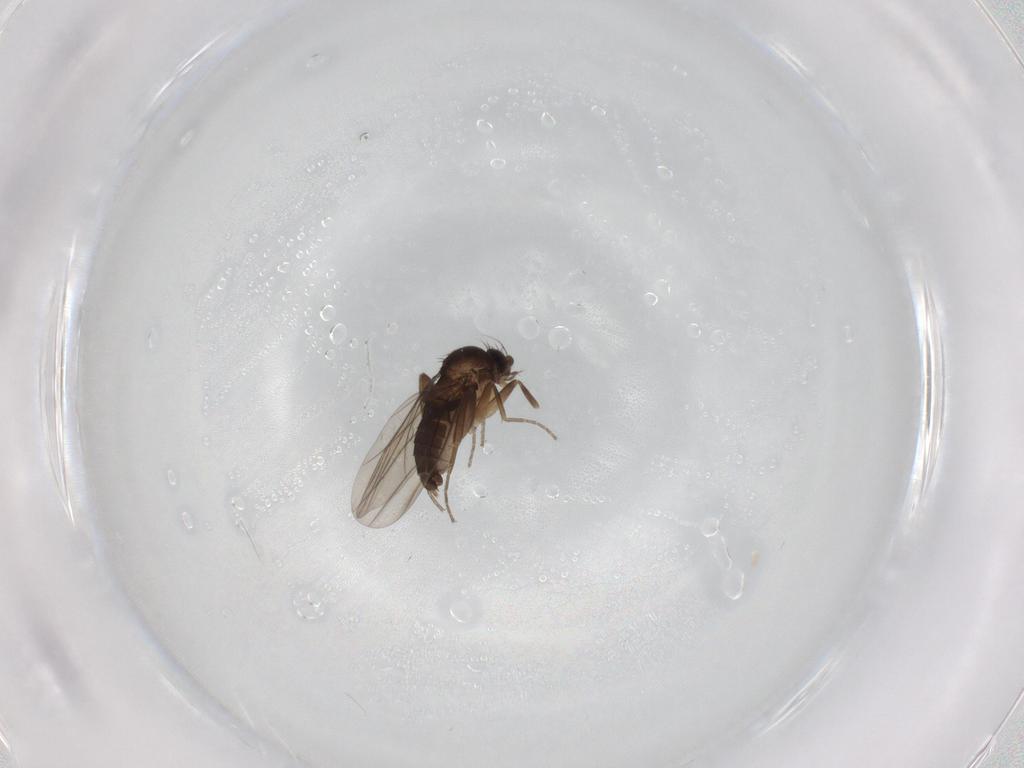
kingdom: Animalia
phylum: Arthropoda
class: Insecta
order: Diptera
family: Phoridae
